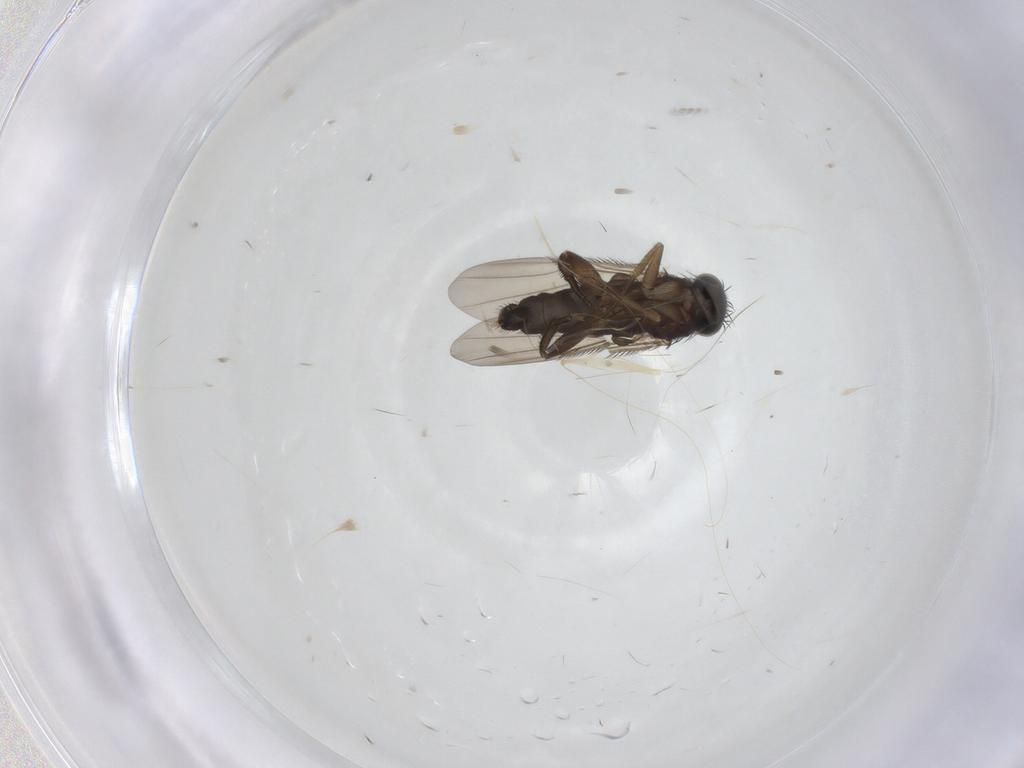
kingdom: Animalia
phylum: Arthropoda
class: Insecta
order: Diptera
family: Phoridae
